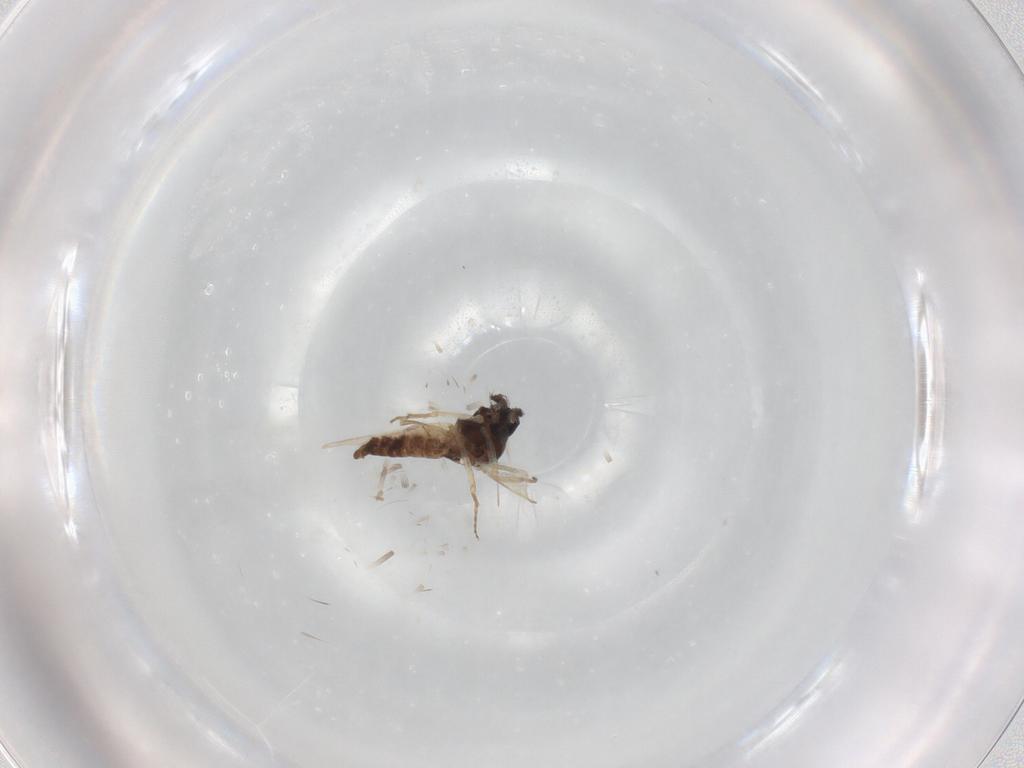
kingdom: Animalia
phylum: Arthropoda
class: Insecta
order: Diptera
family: Ceratopogonidae
